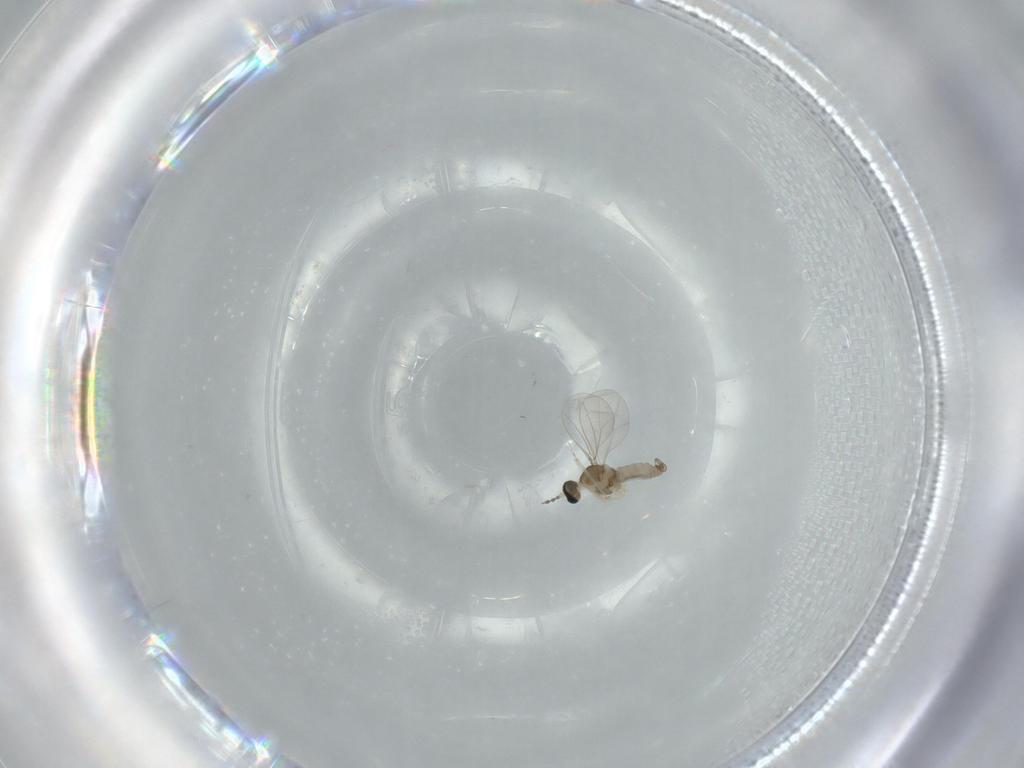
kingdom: Animalia
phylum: Arthropoda
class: Insecta
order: Diptera
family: Cecidomyiidae
